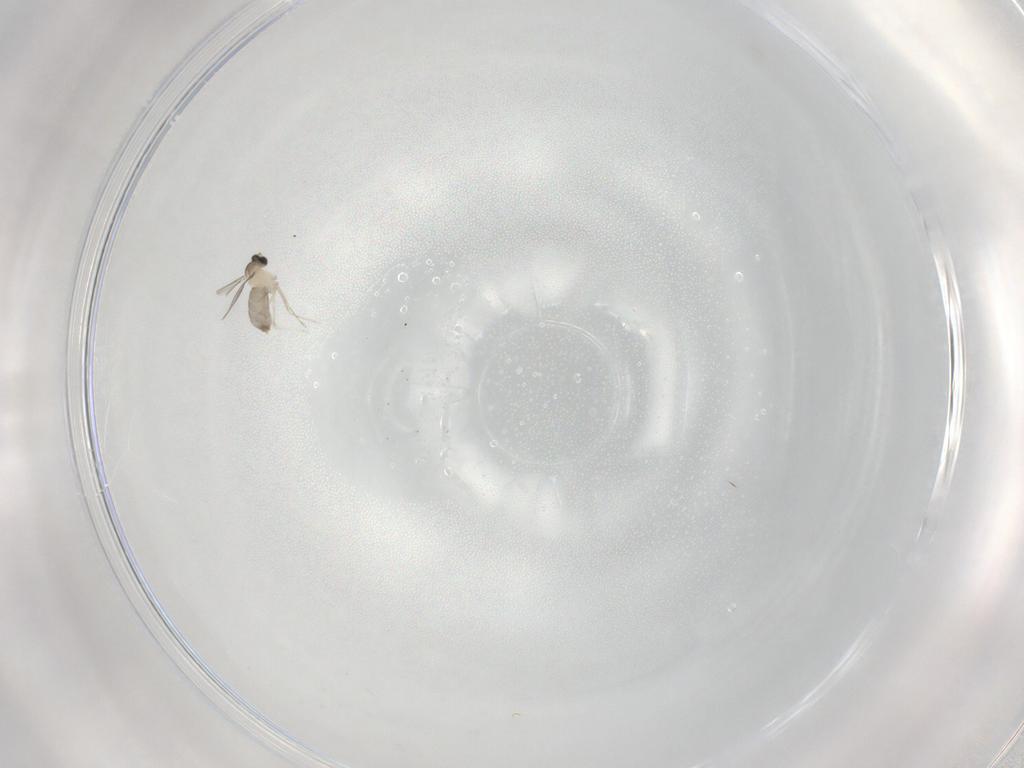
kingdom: Animalia
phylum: Arthropoda
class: Insecta
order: Diptera
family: Cecidomyiidae
